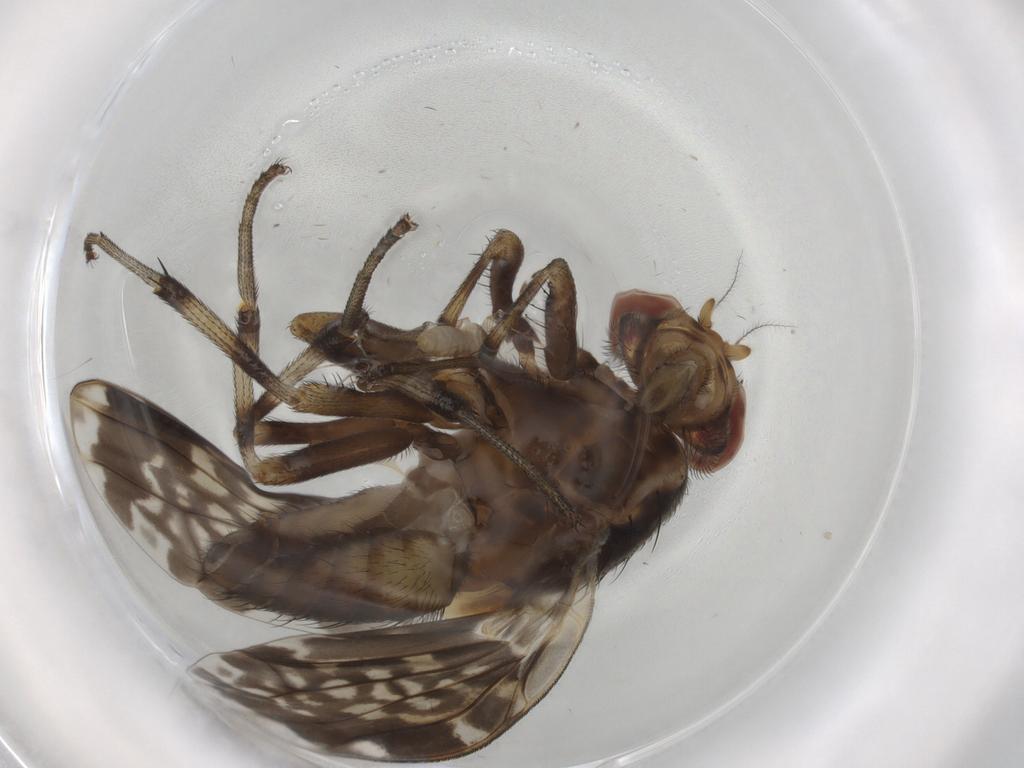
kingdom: Animalia
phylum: Arthropoda
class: Insecta
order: Diptera
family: Cecidomyiidae
